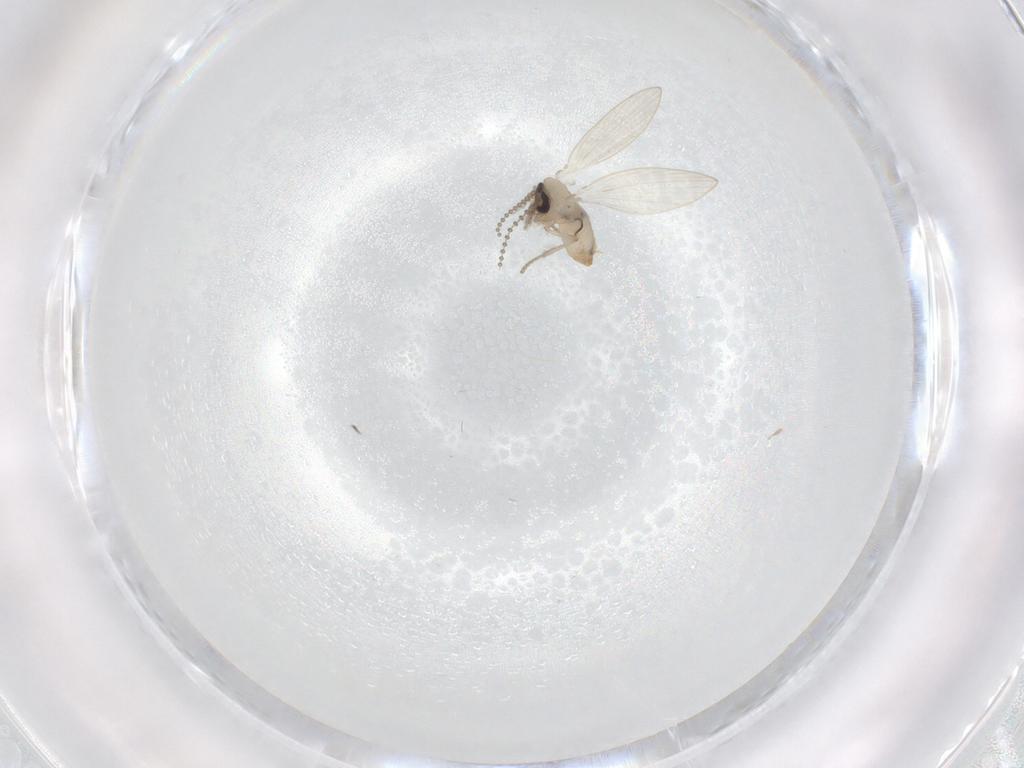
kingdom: Animalia
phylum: Arthropoda
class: Insecta
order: Diptera
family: Psychodidae
